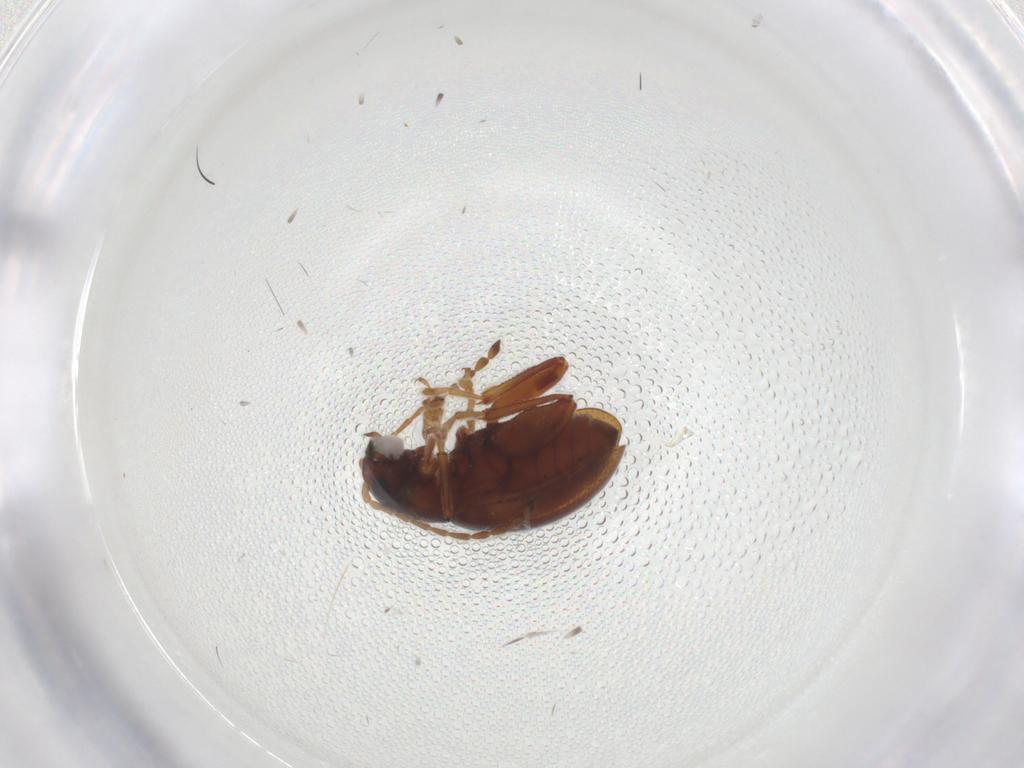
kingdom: Animalia
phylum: Arthropoda
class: Insecta
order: Coleoptera
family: Chrysomelidae
